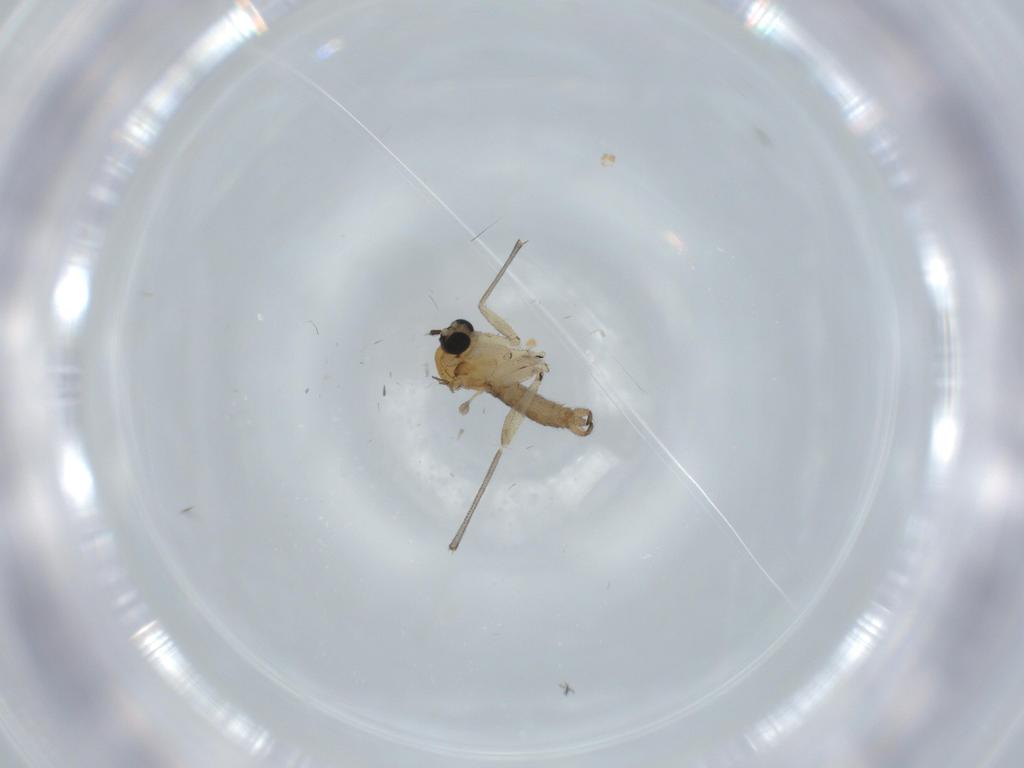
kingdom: Animalia
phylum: Arthropoda
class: Insecta
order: Diptera
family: Sciaridae
